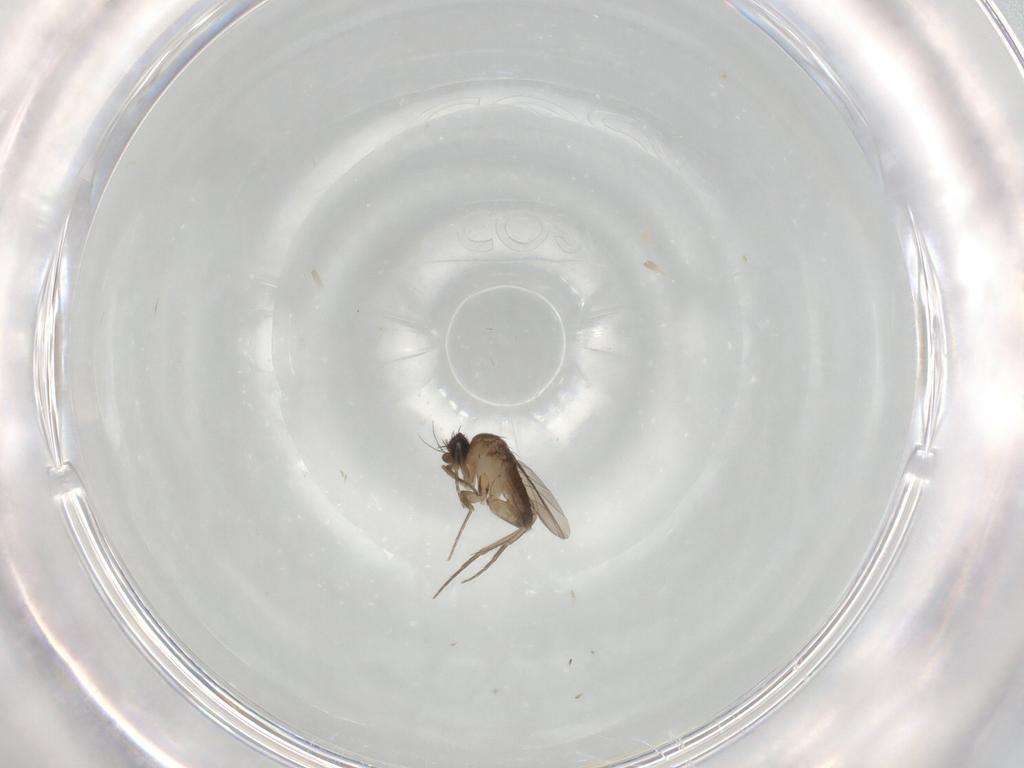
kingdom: Animalia
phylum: Arthropoda
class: Insecta
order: Diptera
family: Phoridae
